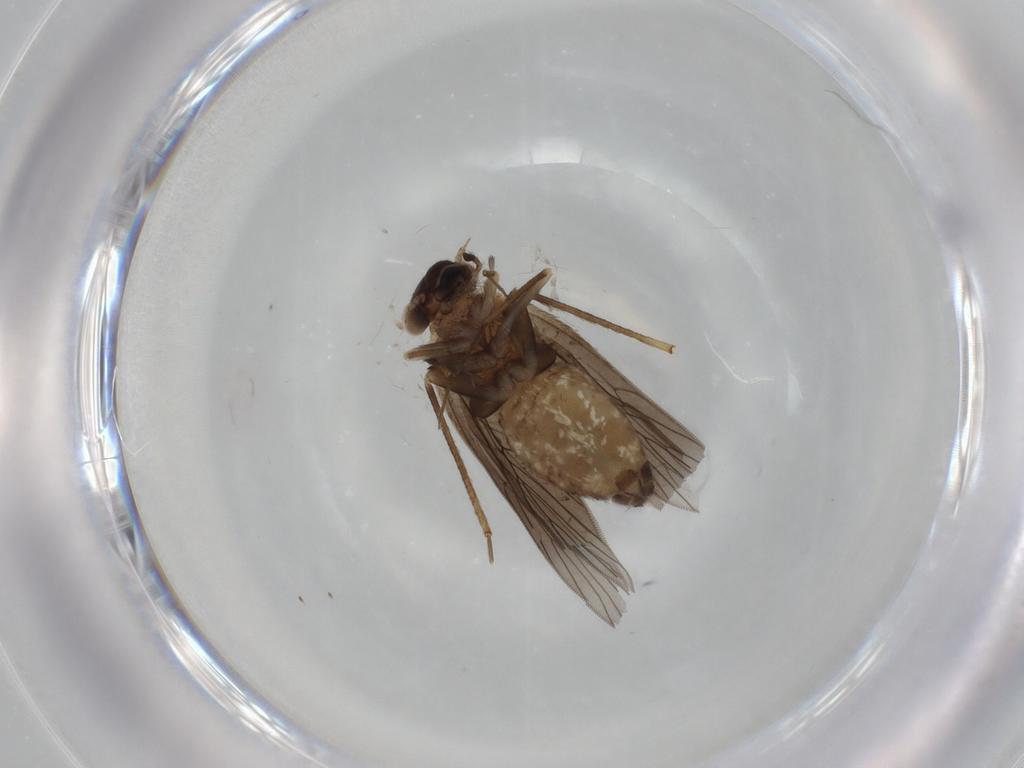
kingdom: Animalia
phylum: Arthropoda
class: Insecta
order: Psocodea
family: Lepidopsocidae
